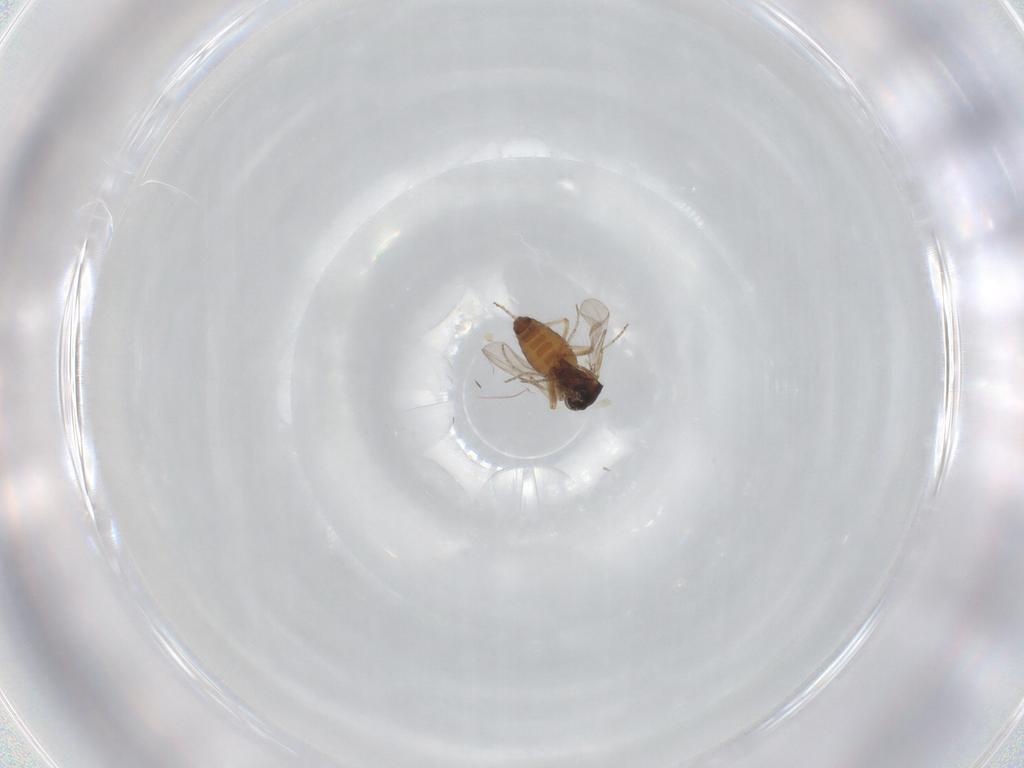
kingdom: Animalia
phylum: Arthropoda
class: Insecta
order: Diptera
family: Ceratopogonidae
